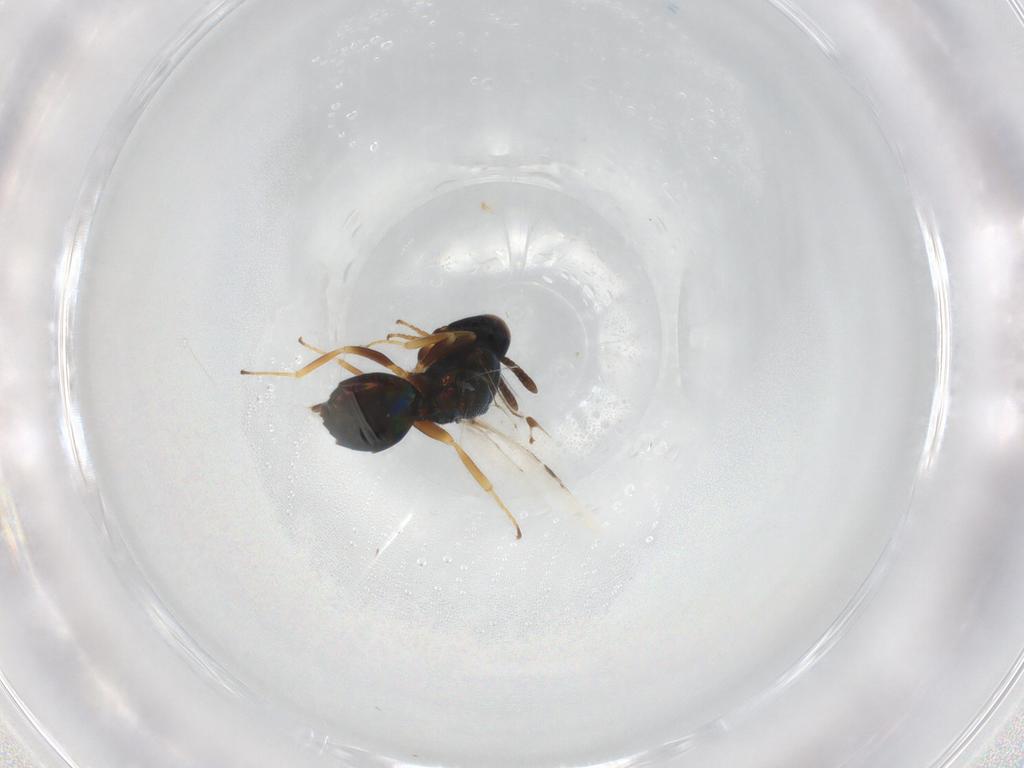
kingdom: Animalia
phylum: Arthropoda
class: Insecta
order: Hymenoptera
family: Pteromalidae
